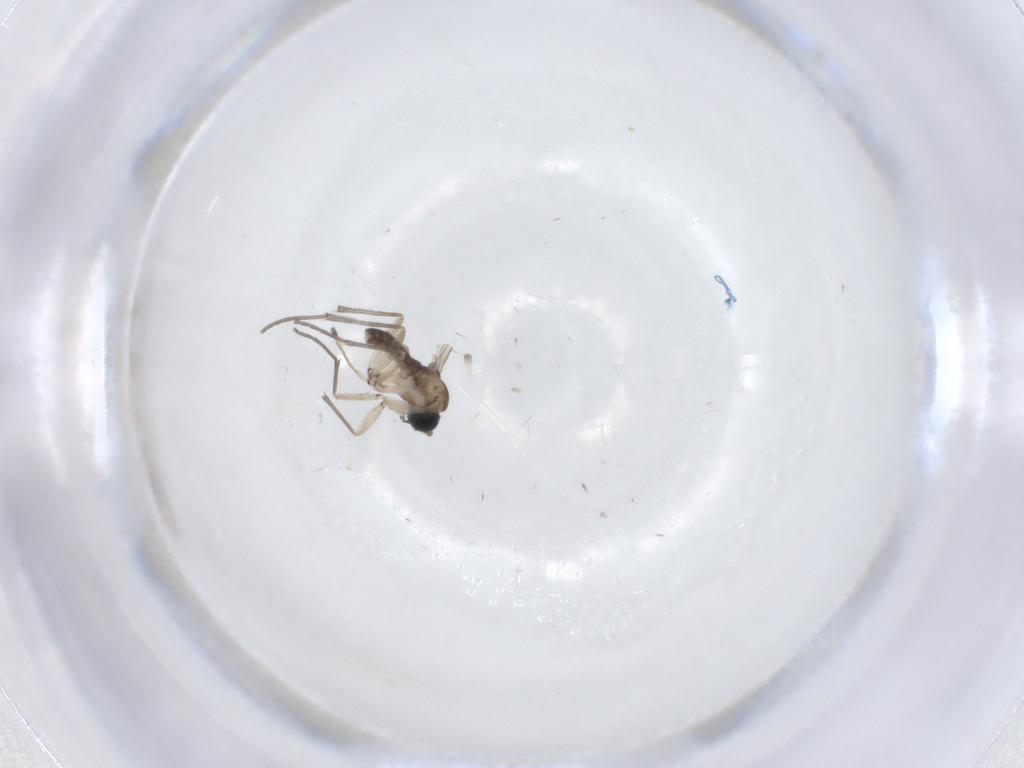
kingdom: Animalia
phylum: Arthropoda
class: Insecta
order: Diptera
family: Sciaridae
